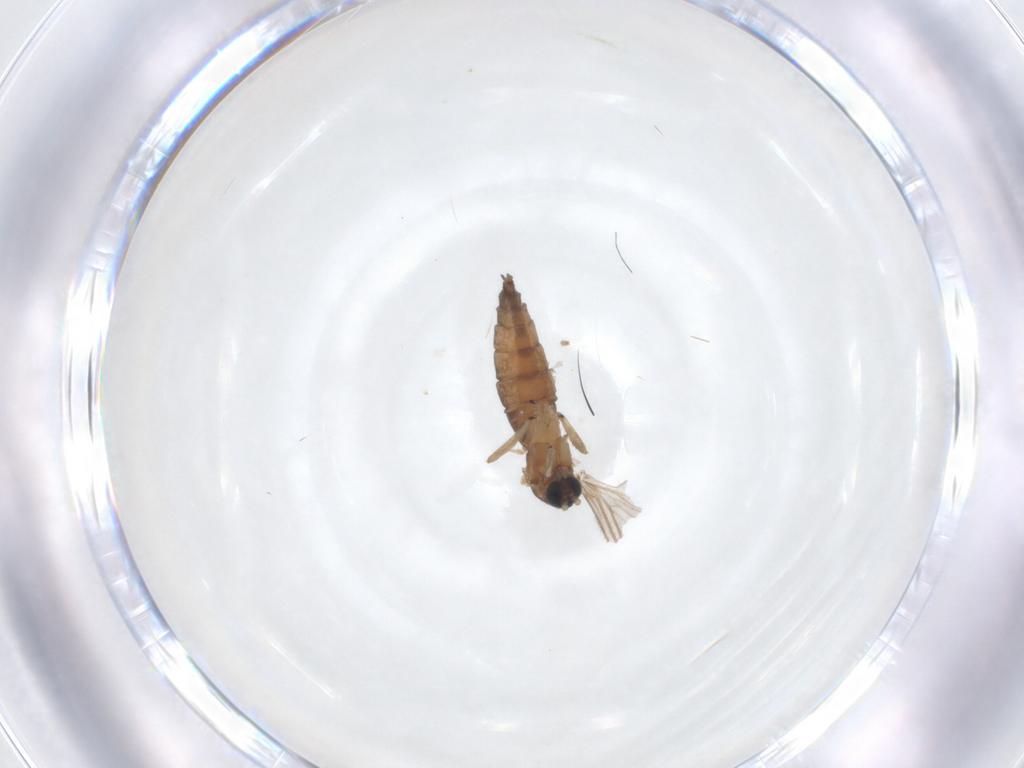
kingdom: Animalia
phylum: Arthropoda
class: Insecta
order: Diptera
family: Sciaridae
